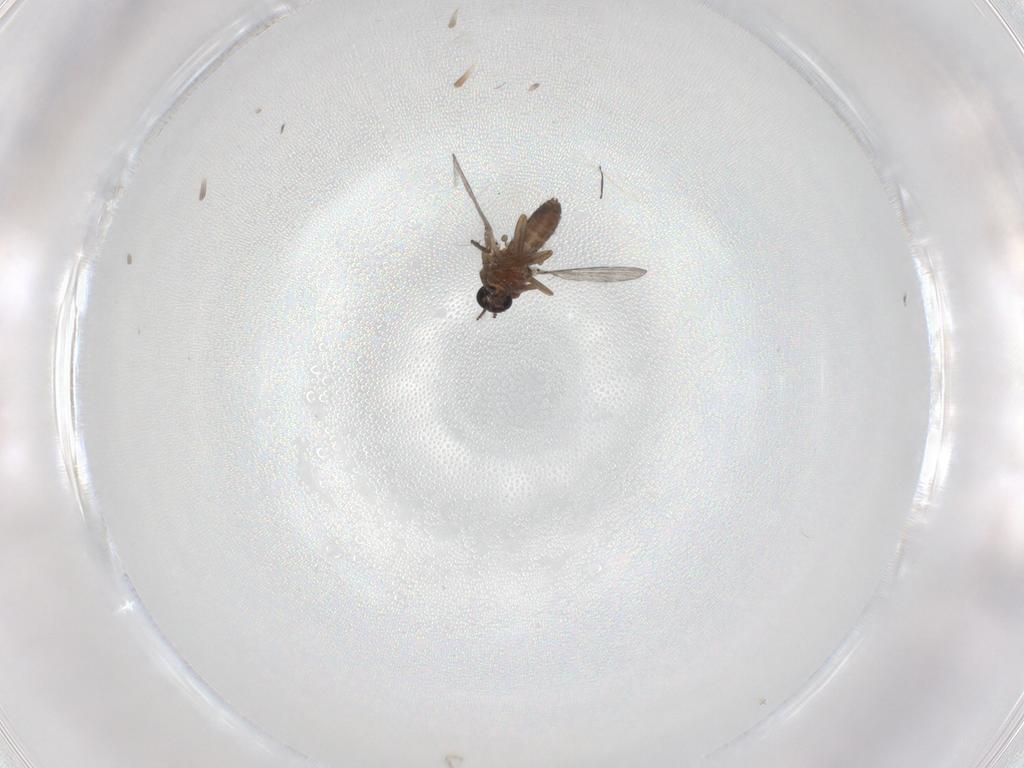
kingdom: Animalia
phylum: Arthropoda
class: Insecta
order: Diptera
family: Ceratopogonidae
